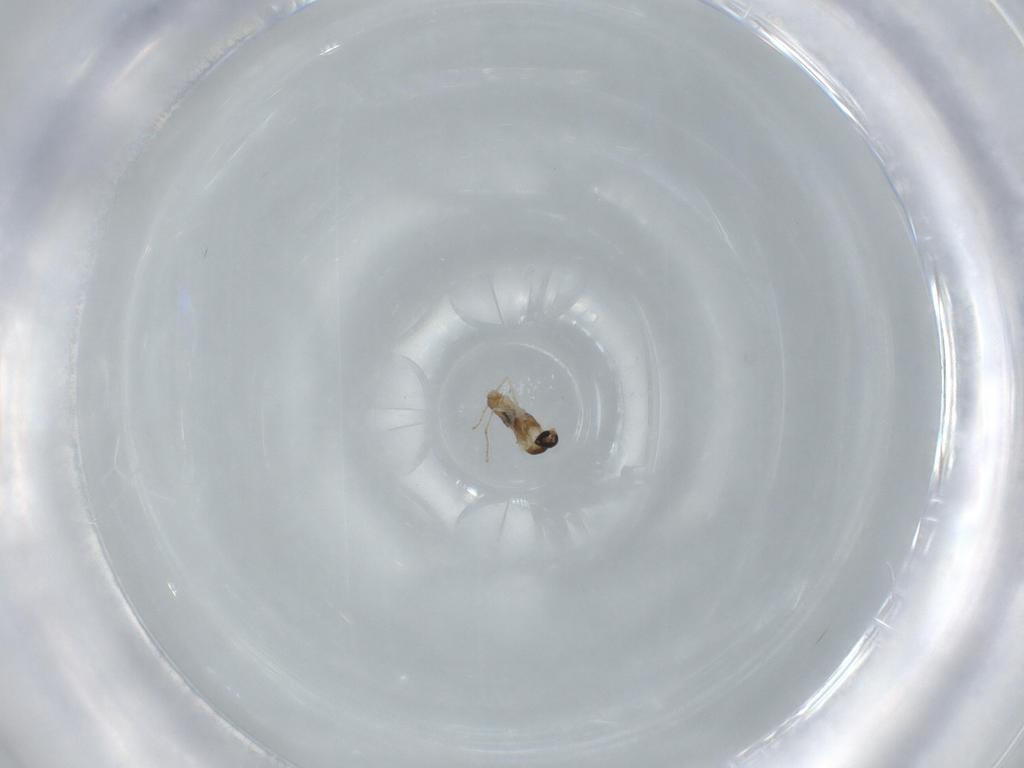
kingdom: Animalia
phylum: Arthropoda
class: Insecta
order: Diptera
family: Cecidomyiidae
